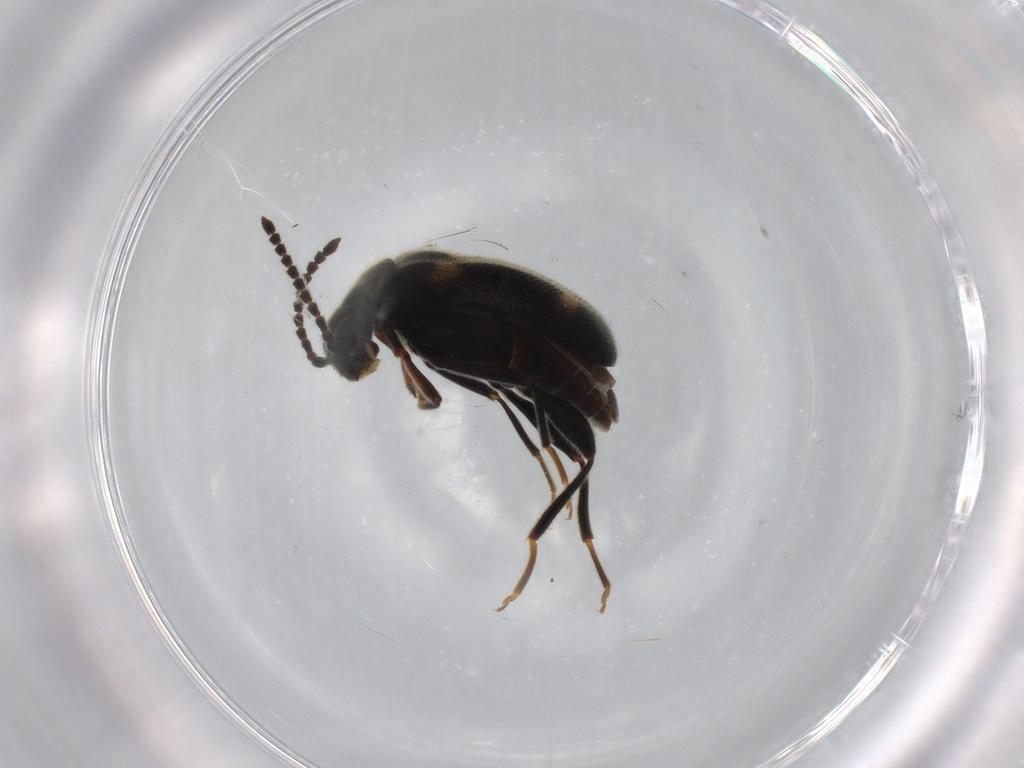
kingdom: Animalia
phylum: Arthropoda
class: Insecta
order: Coleoptera
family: Aderidae
